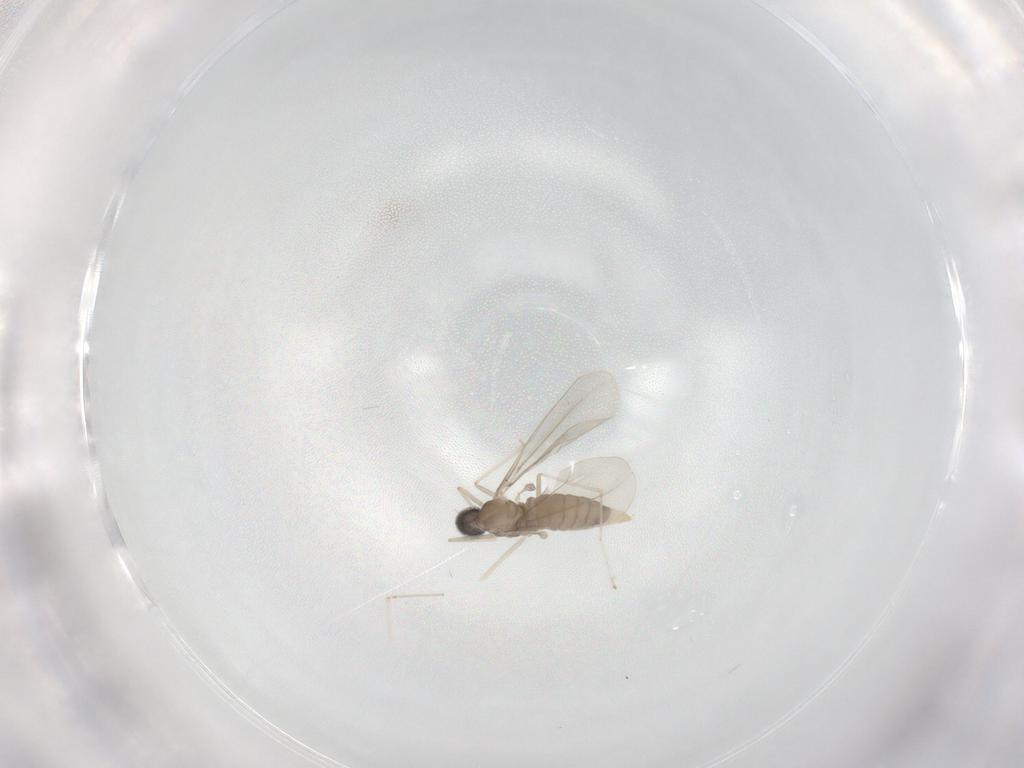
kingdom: Animalia
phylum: Arthropoda
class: Insecta
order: Diptera
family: Cecidomyiidae
